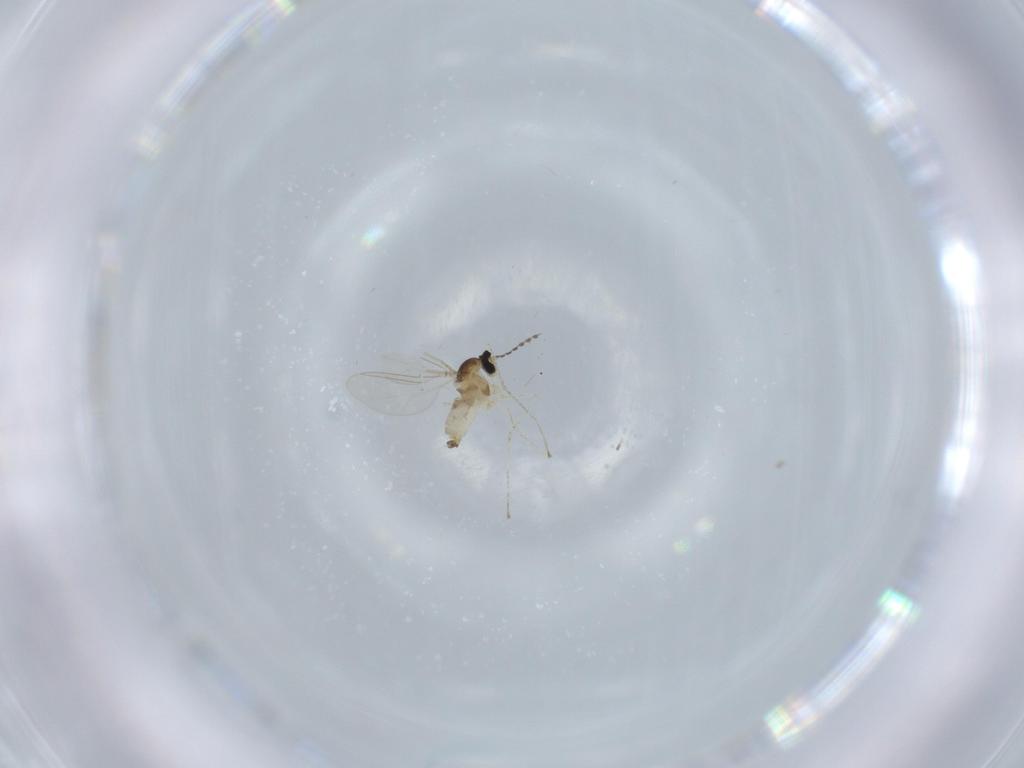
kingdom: Animalia
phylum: Arthropoda
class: Insecta
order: Diptera
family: Cecidomyiidae
